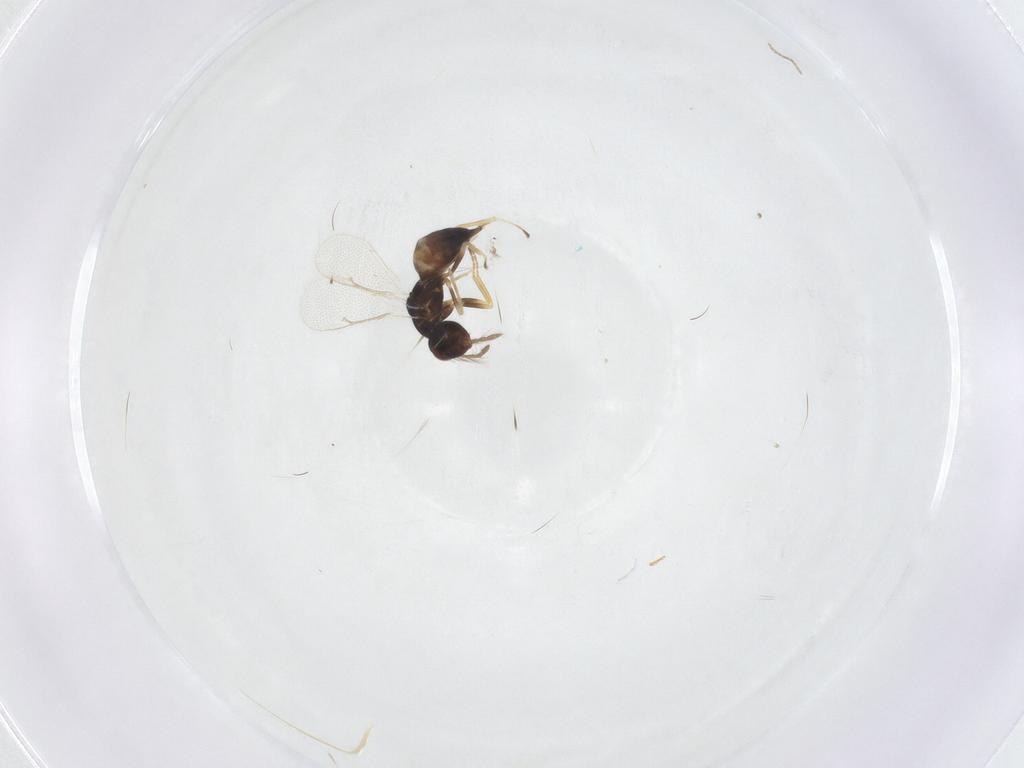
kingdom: Animalia
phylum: Arthropoda
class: Insecta
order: Hymenoptera
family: Eulophidae
